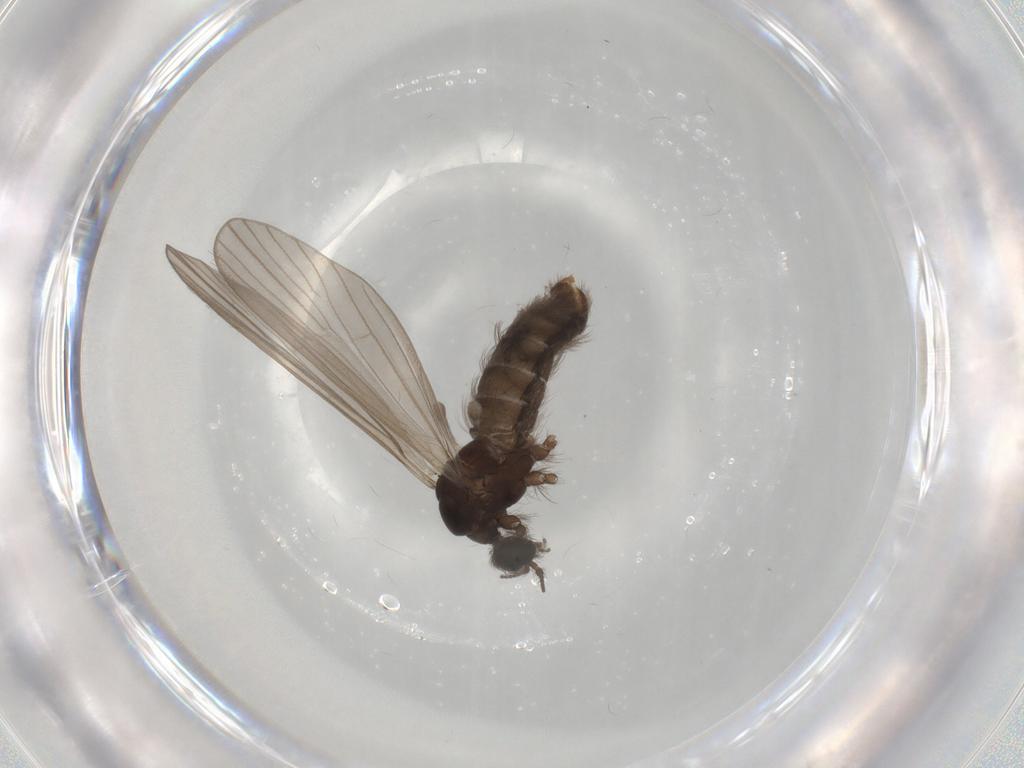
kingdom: Animalia
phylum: Arthropoda
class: Insecta
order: Diptera
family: Limoniidae
